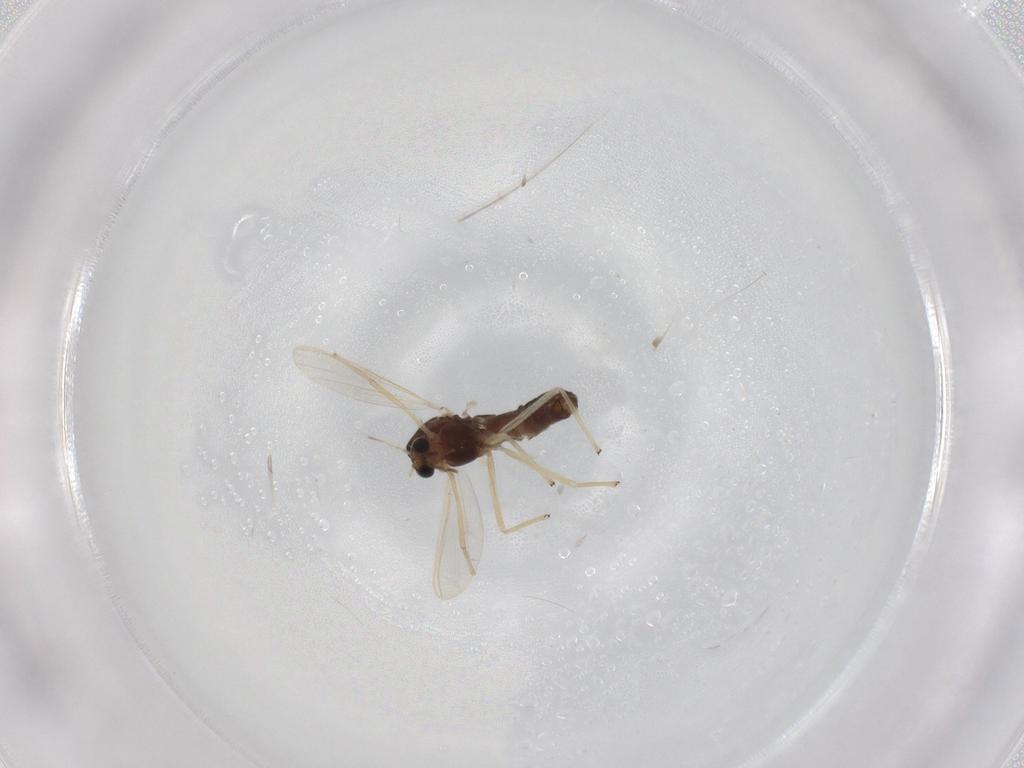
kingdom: Animalia
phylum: Arthropoda
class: Insecta
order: Diptera
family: Chironomidae
